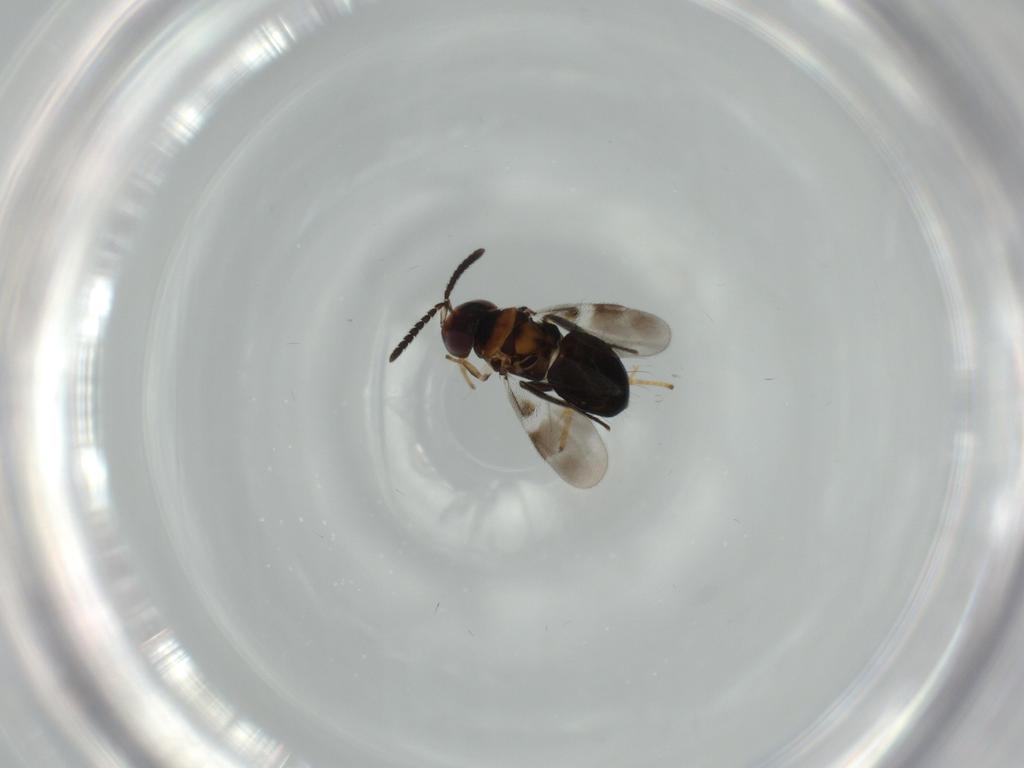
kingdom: Animalia
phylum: Arthropoda
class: Insecta
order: Hymenoptera
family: Encyrtidae
